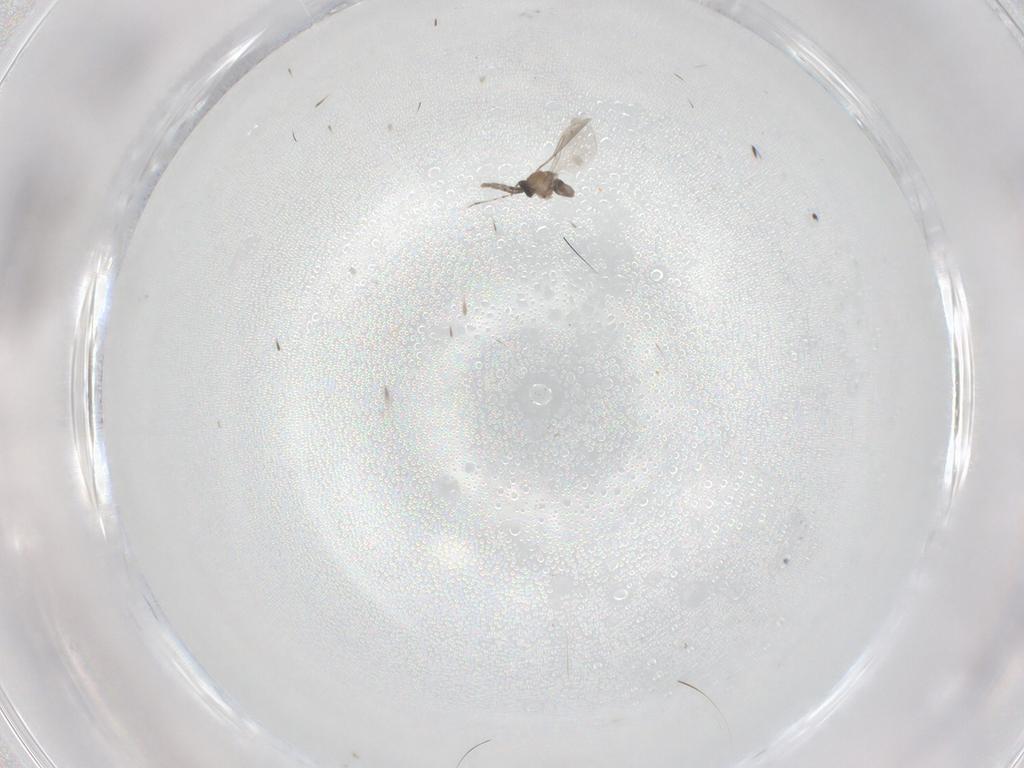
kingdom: Animalia
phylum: Arthropoda
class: Insecta
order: Diptera
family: Cecidomyiidae
